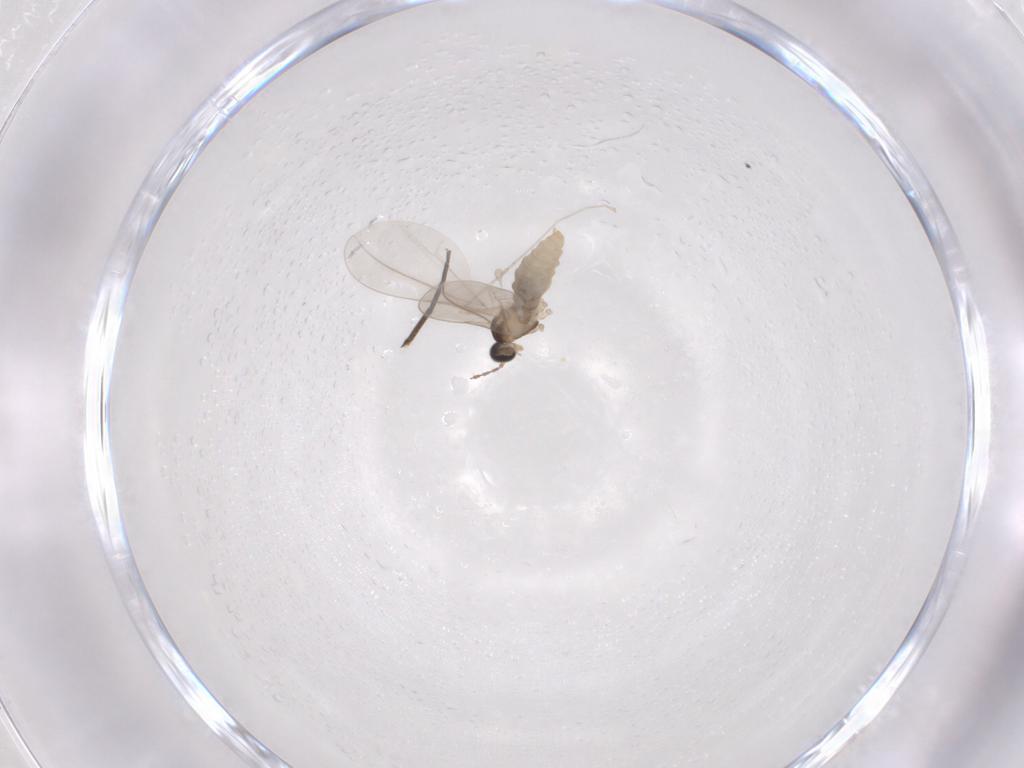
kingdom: Animalia
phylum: Arthropoda
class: Insecta
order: Diptera
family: Cecidomyiidae
